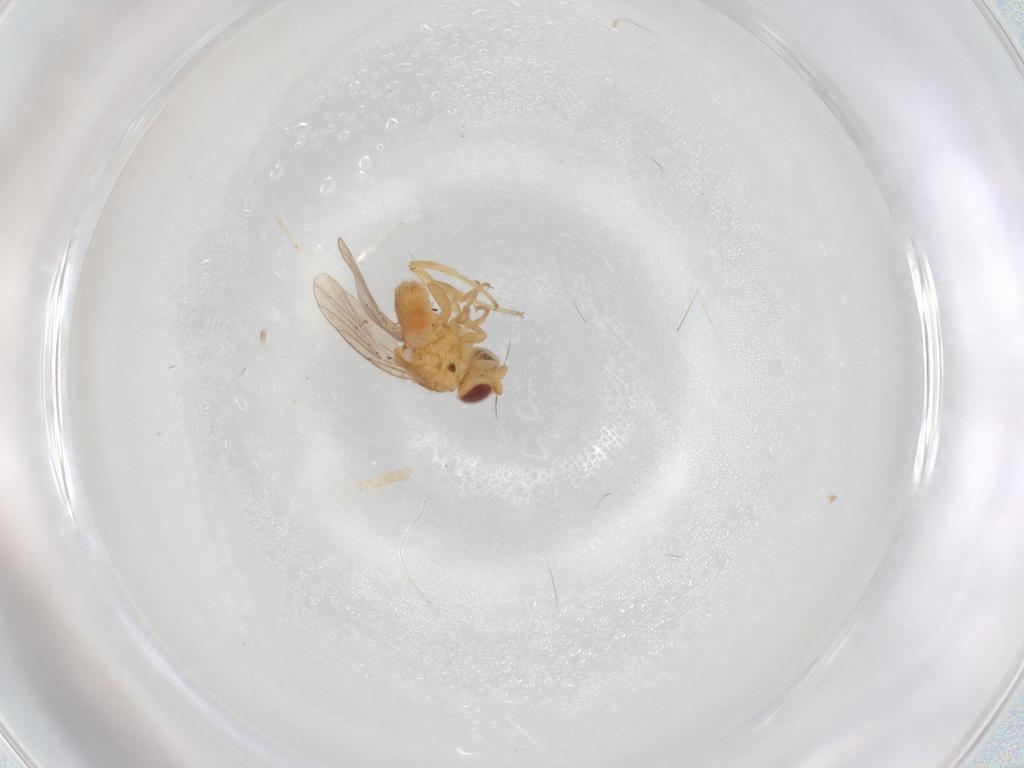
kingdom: Animalia
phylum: Arthropoda
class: Insecta
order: Diptera
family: Chloropidae
